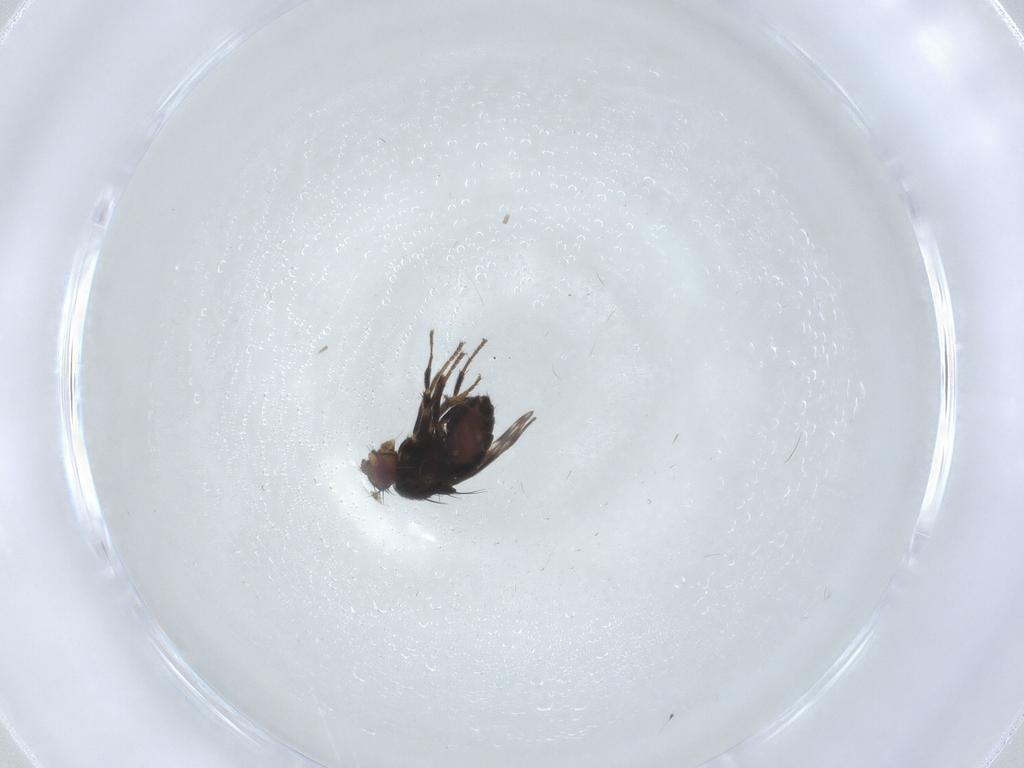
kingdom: Animalia
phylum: Arthropoda
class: Insecta
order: Diptera
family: Sphaeroceridae
